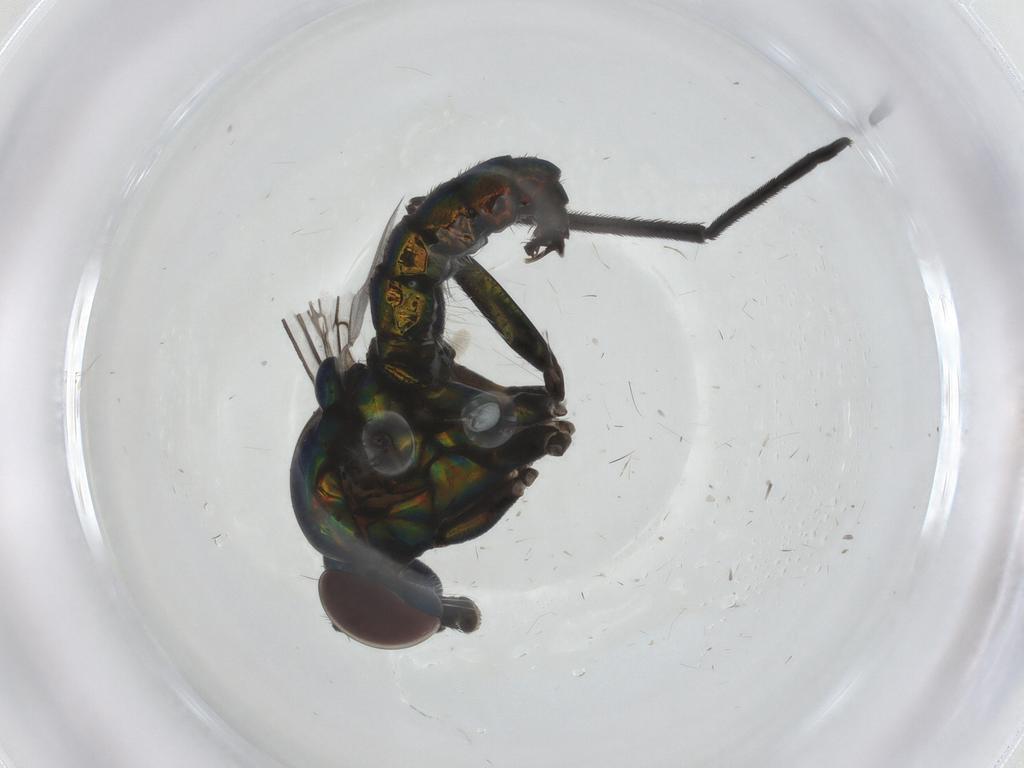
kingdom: Animalia
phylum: Arthropoda
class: Insecta
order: Diptera
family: Dolichopodidae
